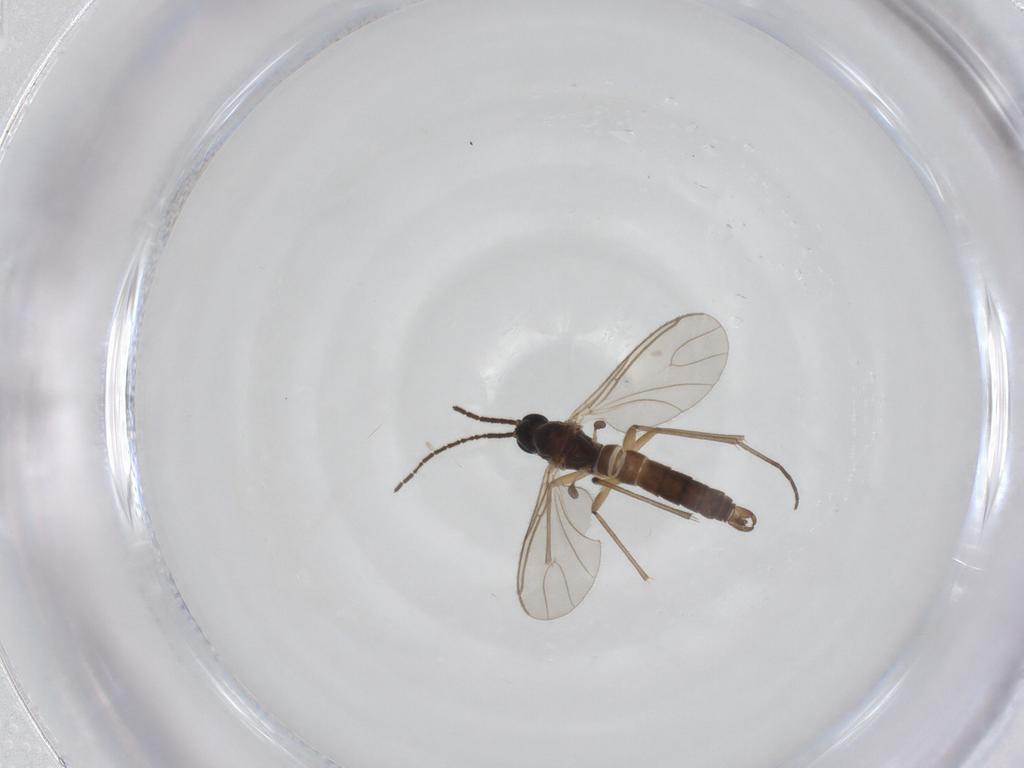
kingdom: Animalia
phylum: Arthropoda
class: Insecta
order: Diptera
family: Sciaridae
